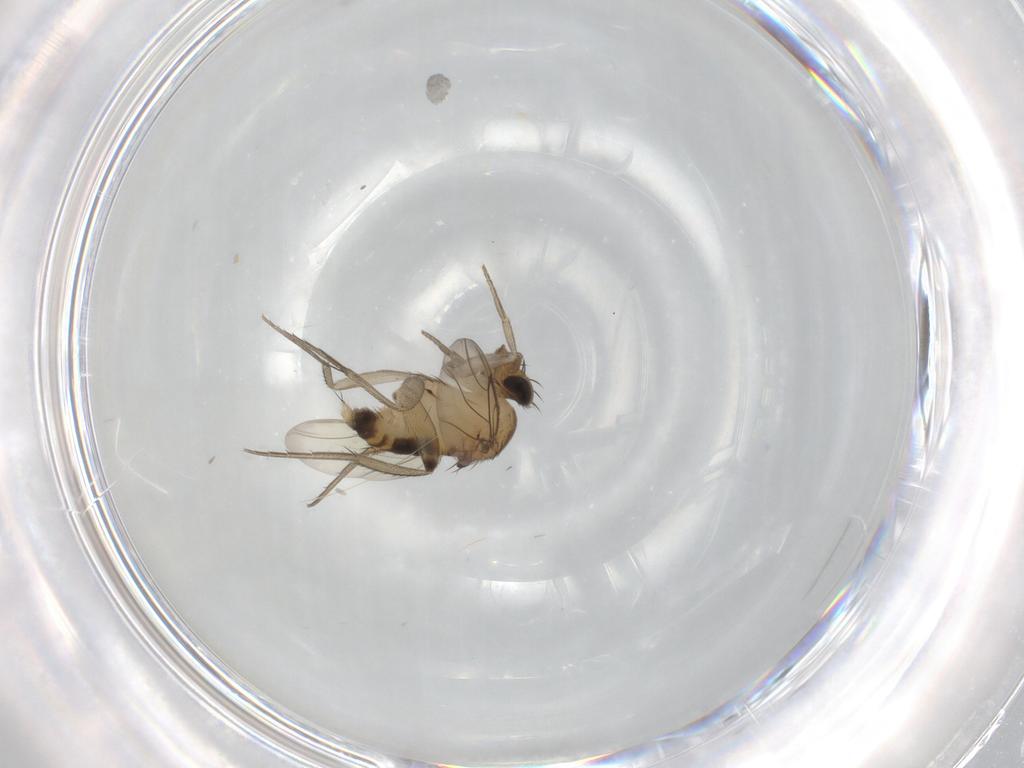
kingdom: Animalia
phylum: Arthropoda
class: Insecta
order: Diptera
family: Phoridae
